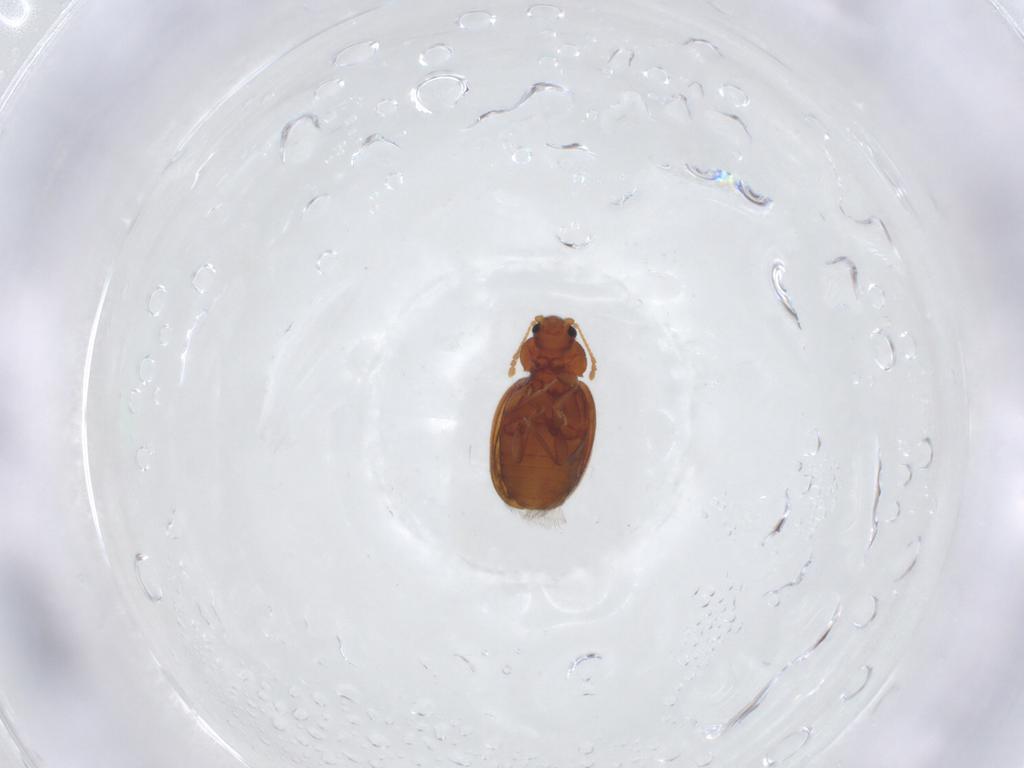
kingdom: Animalia
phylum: Arthropoda
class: Insecta
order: Coleoptera
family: Latridiidae
